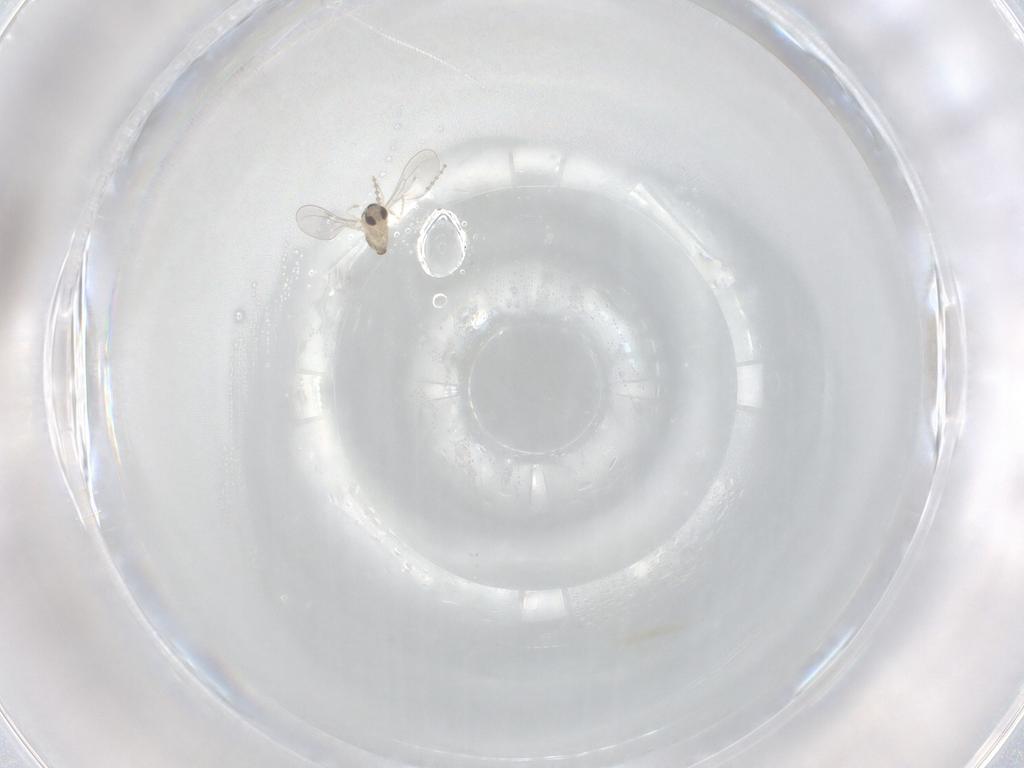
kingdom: Animalia
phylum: Arthropoda
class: Insecta
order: Diptera
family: Cecidomyiidae
